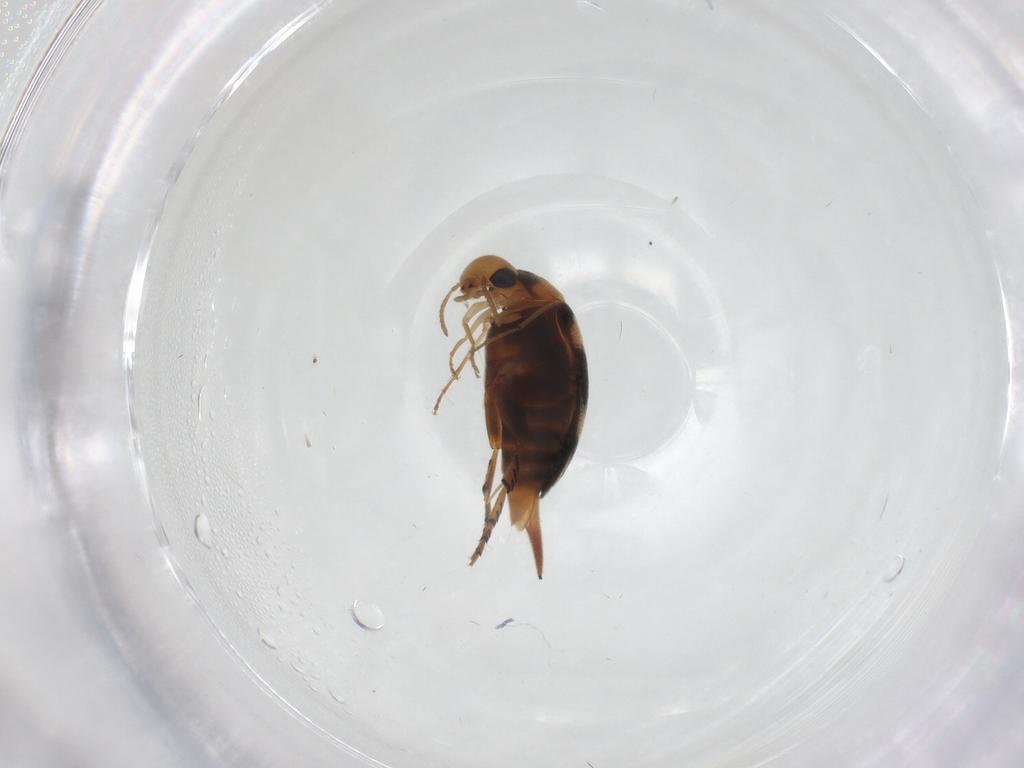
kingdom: Animalia
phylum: Arthropoda
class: Insecta
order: Coleoptera
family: Mordellidae
